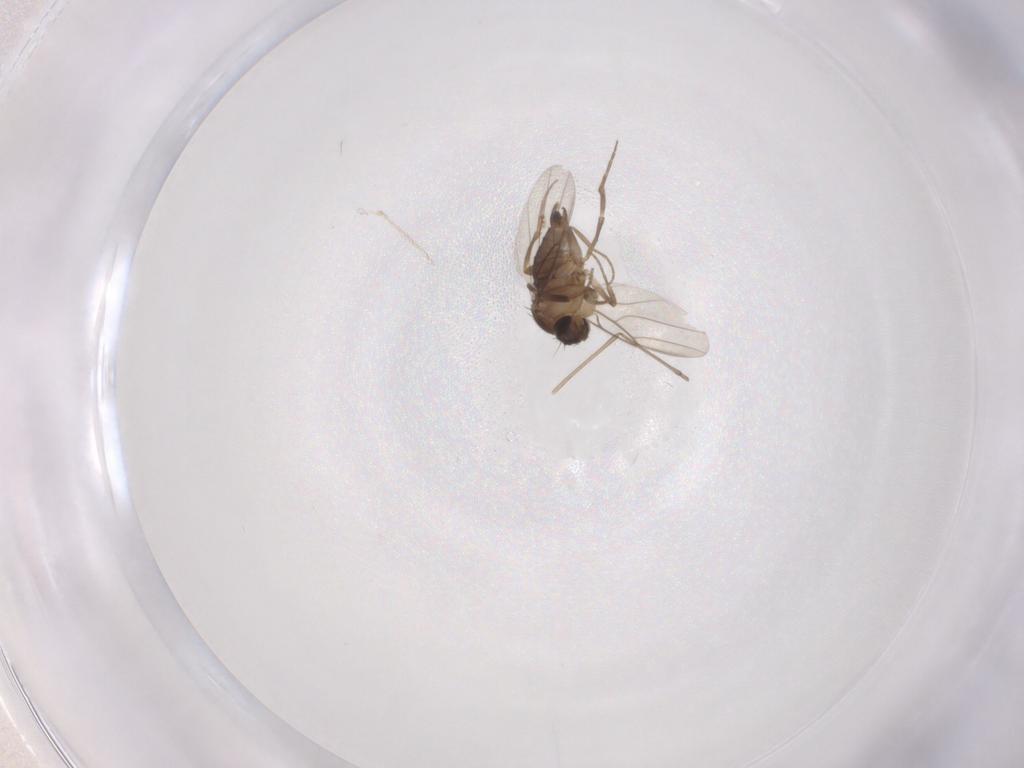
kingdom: Animalia
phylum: Arthropoda
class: Insecta
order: Diptera
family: Phoridae
